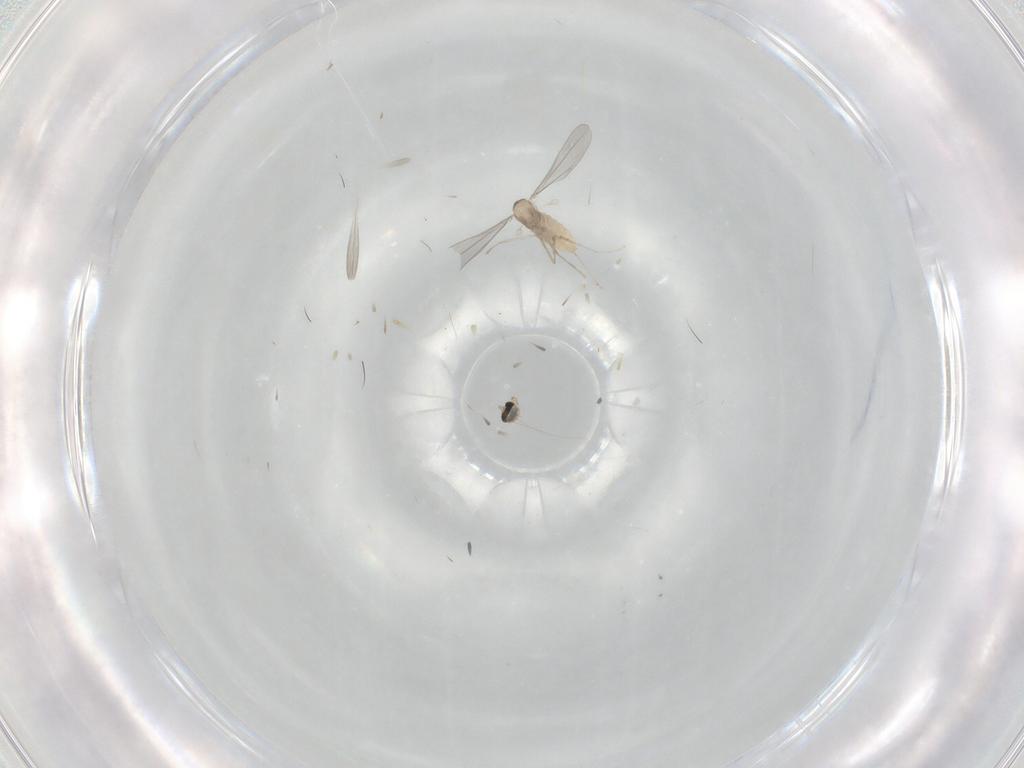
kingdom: Animalia
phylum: Arthropoda
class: Insecta
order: Diptera
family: Cecidomyiidae
